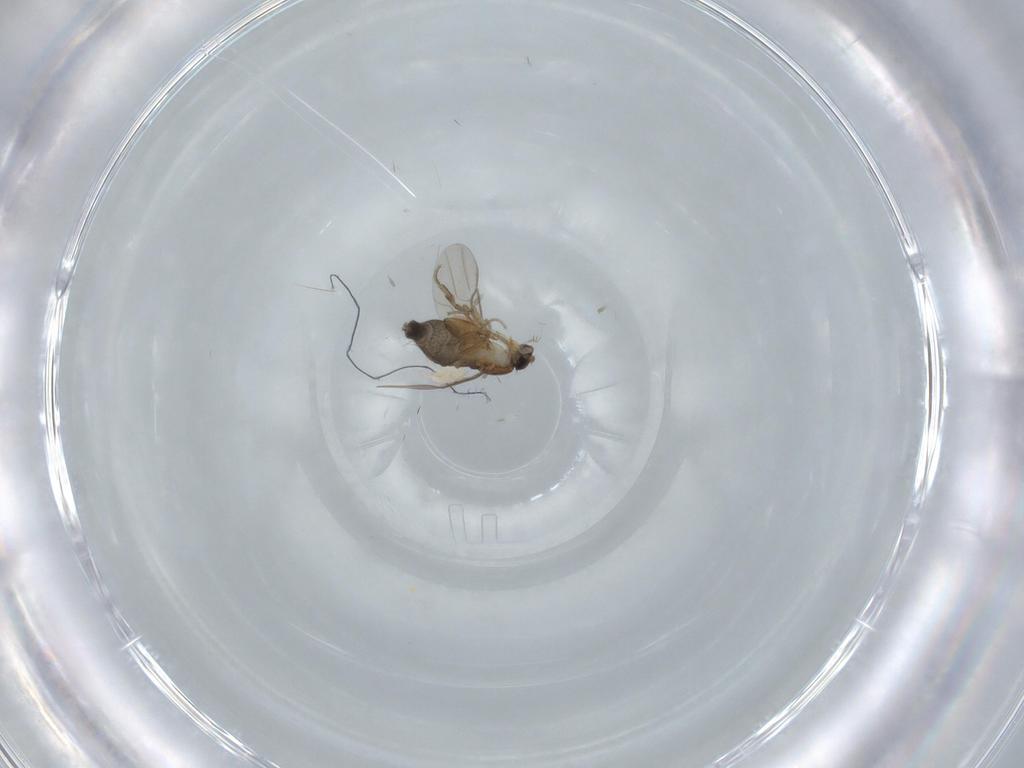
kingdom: Animalia
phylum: Arthropoda
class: Insecta
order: Diptera
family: Phoridae
